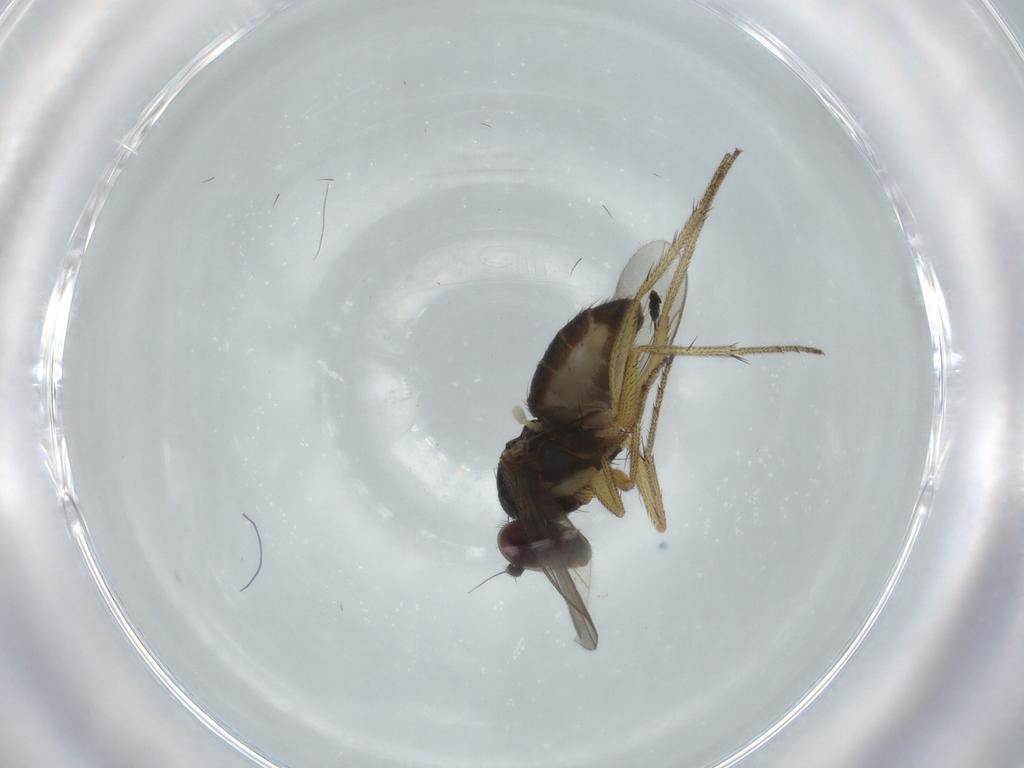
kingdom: Animalia
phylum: Arthropoda
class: Insecta
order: Diptera
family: Dolichopodidae
